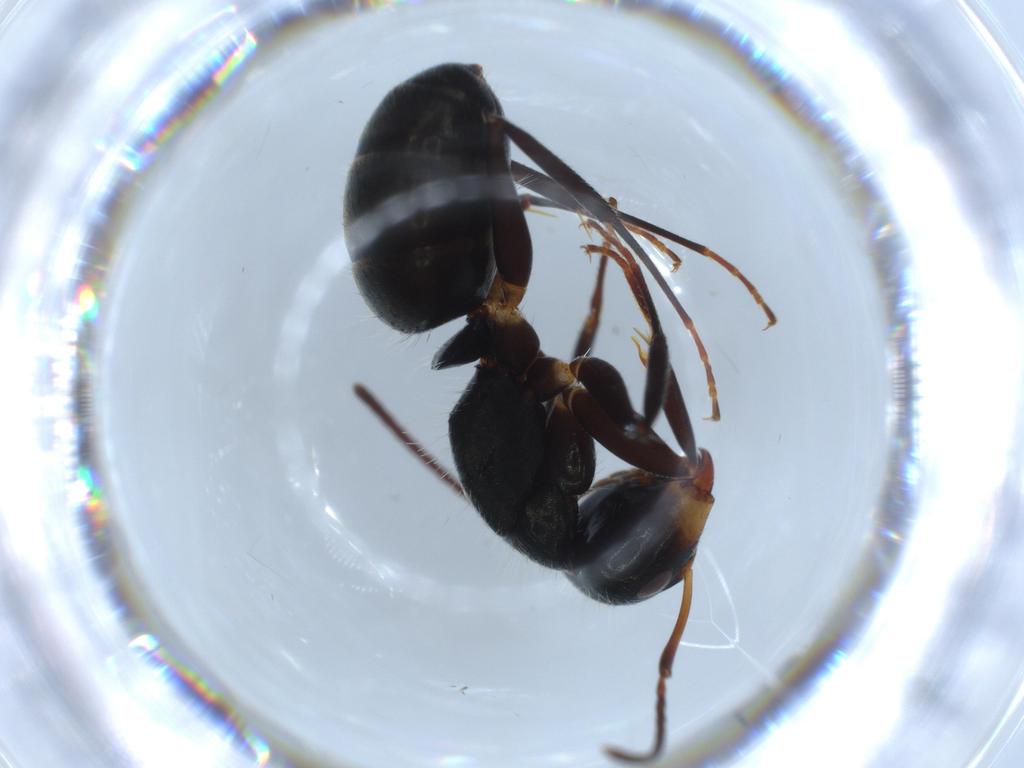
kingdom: Animalia
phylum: Arthropoda
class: Insecta
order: Hymenoptera
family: Formicidae
